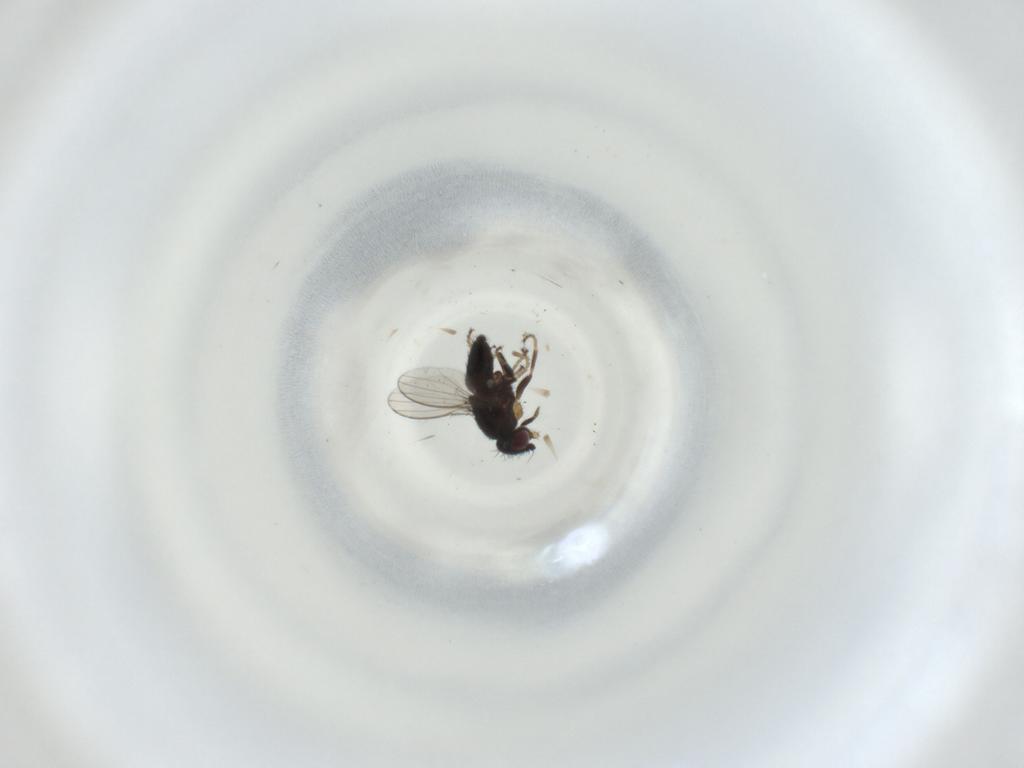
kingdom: Animalia
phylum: Arthropoda
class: Insecta
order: Diptera
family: Milichiidae
